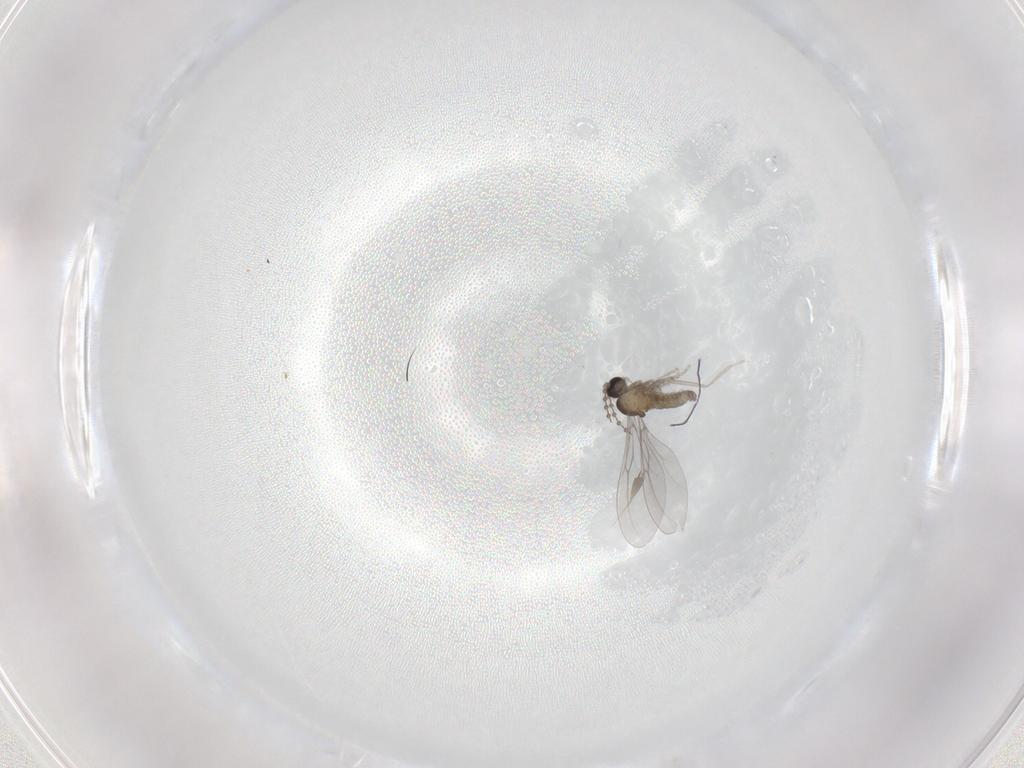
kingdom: Animalia
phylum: Arthropoda
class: Insecta
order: Diptera
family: Cecidomyiidae
